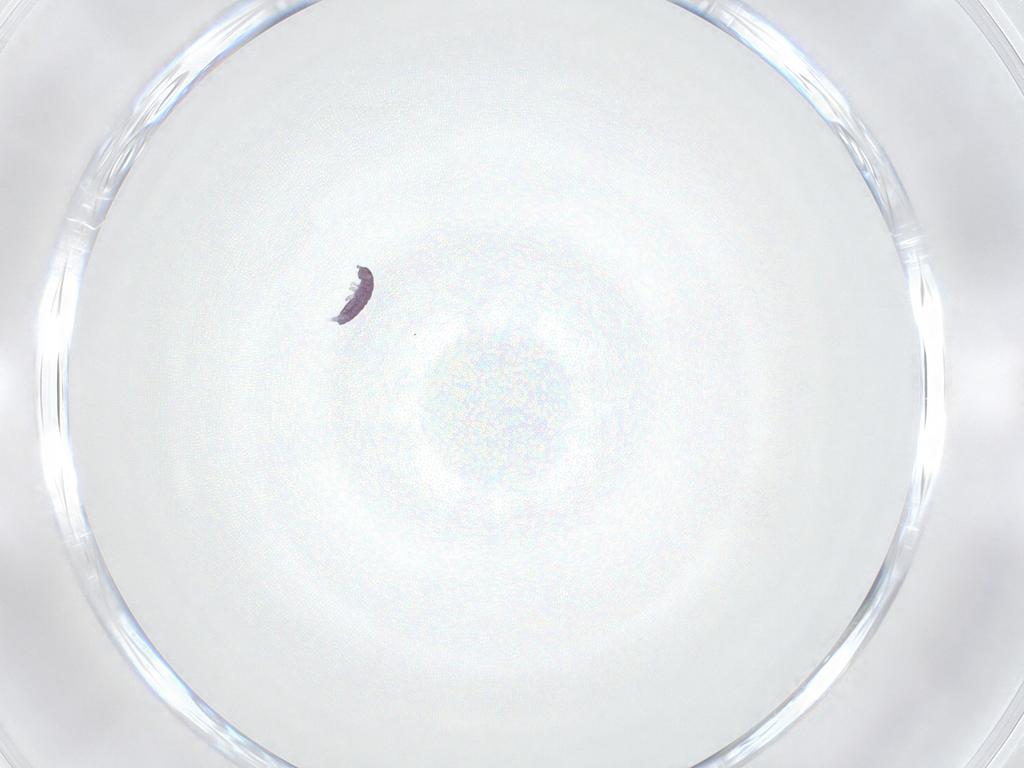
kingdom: Animalia
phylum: Arthropoda
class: Collembola
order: Entomobryomorpha
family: Isotomidae
